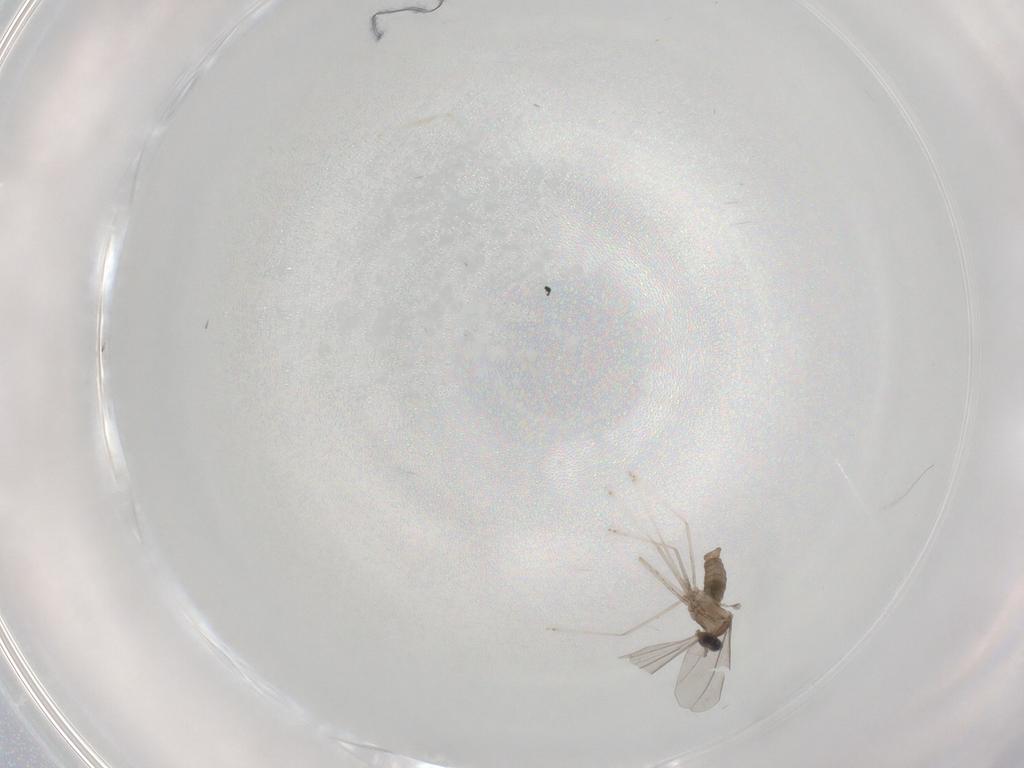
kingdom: Animalia
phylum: Arthropoda
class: Insecta
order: Diptera
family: Cecidomyiidae
